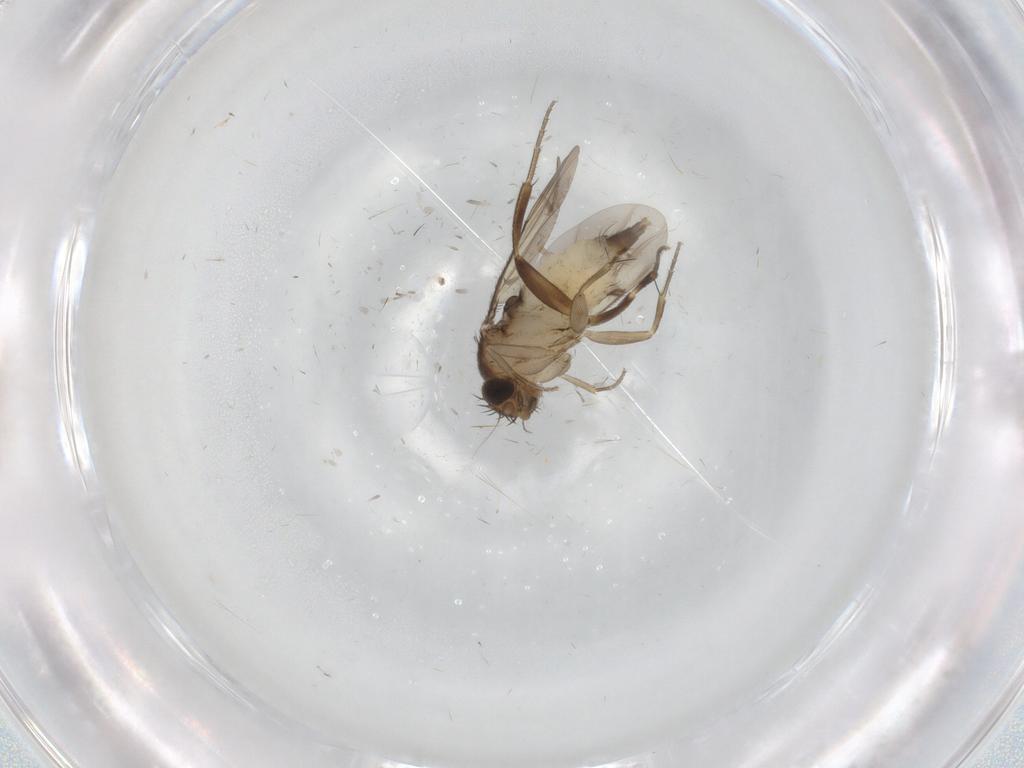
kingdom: Animalia
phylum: Arthropoda
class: Insecta
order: Diptera
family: Phoridae
